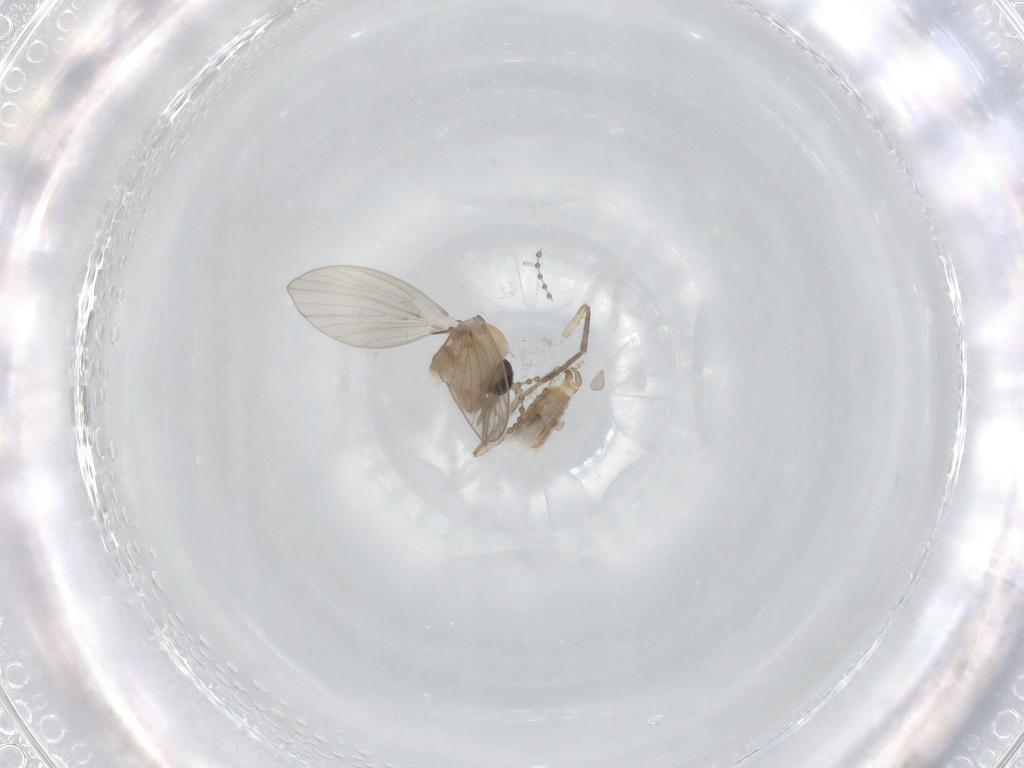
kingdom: Animalia
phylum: Arthropoda
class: Insecta
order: Diptera
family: Psychodidae
